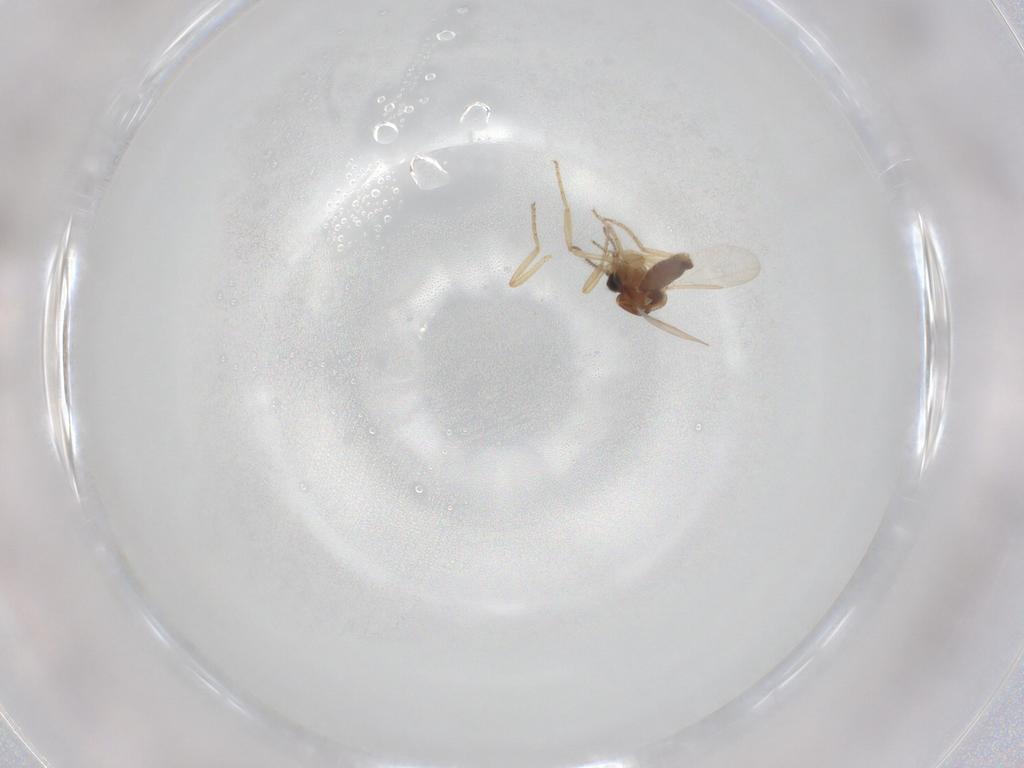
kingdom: Animalia
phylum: Arthropoda
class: Insecta
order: Diptera
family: Ceratopogonidae
